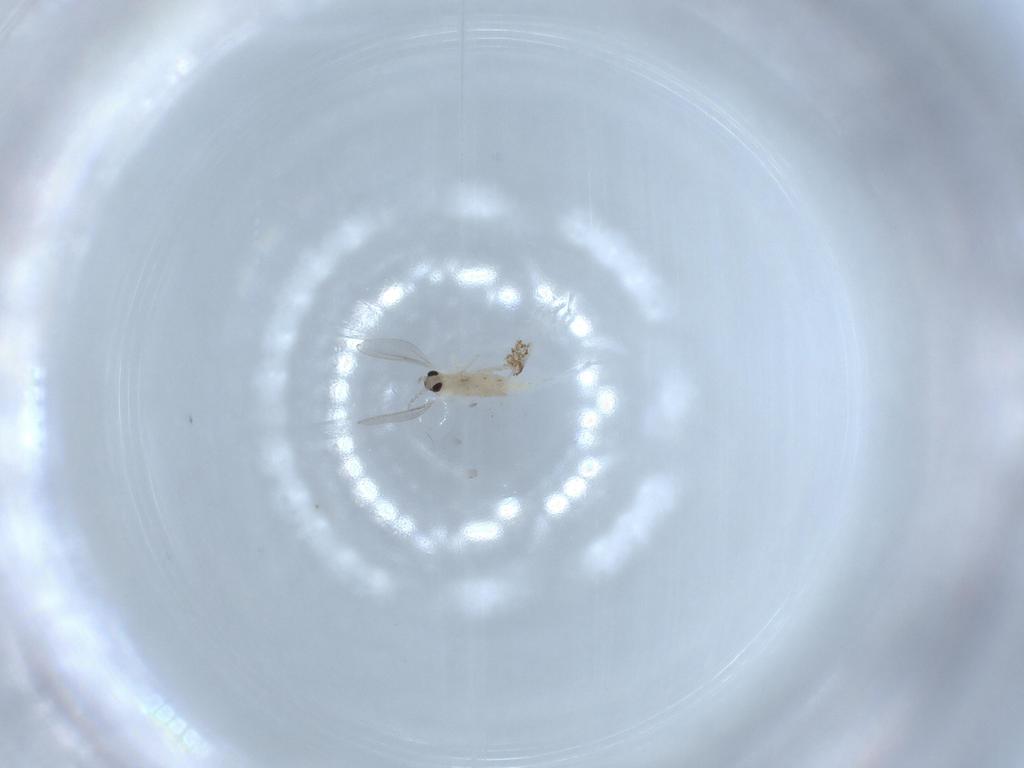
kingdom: Animalia
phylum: Arthropoda
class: Insecta
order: Diptera
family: Cecidomyiidae
